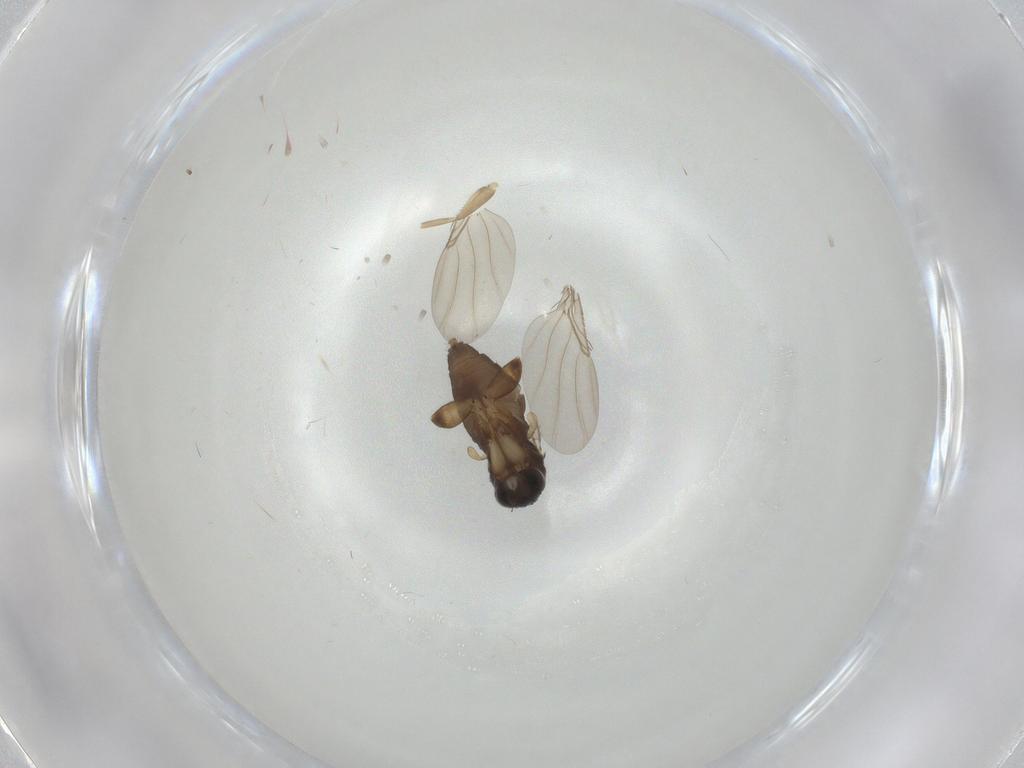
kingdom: Animalia
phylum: Arthropoda
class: Insecta
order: Diptera
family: Phoridae
